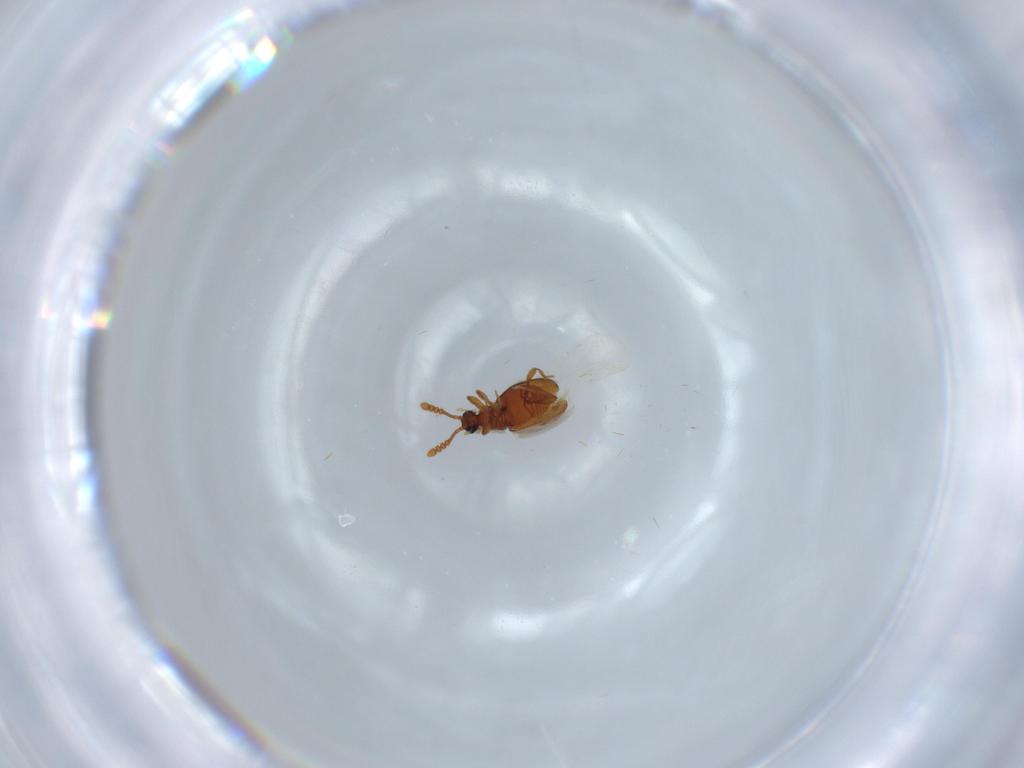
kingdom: Animalia
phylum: Arthropoda
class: Insecta
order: Coleoptera
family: Staphylinidae
